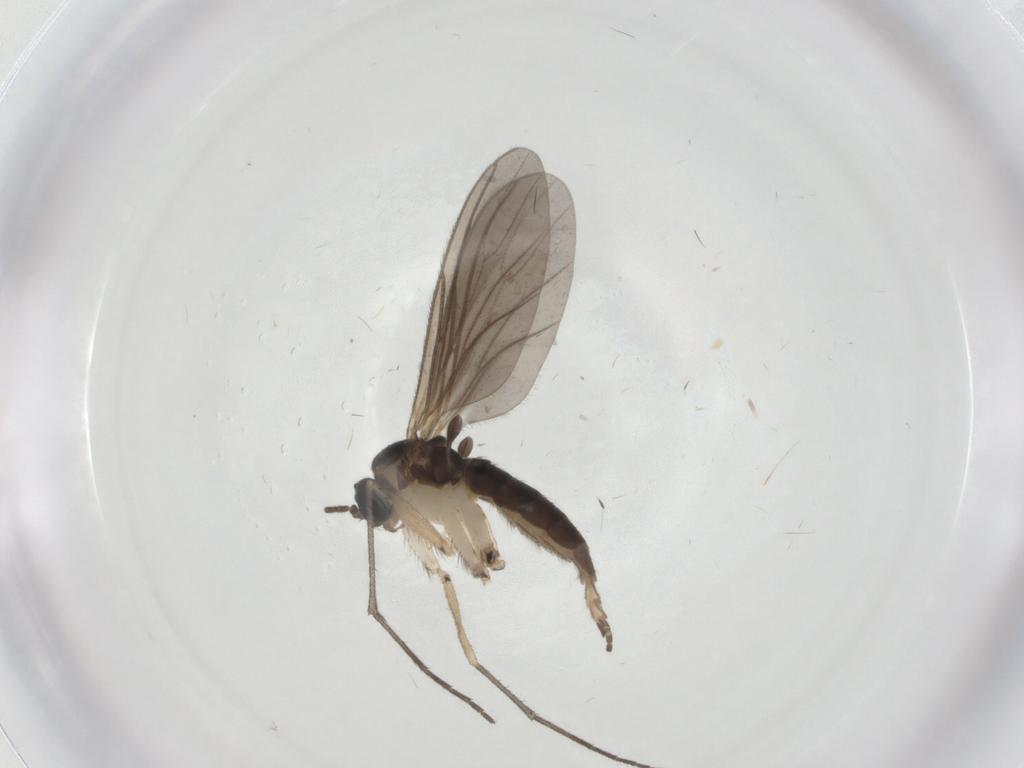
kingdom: Animalia
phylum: Arthropoda
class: Insecta
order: Diptera
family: Sciaridae
